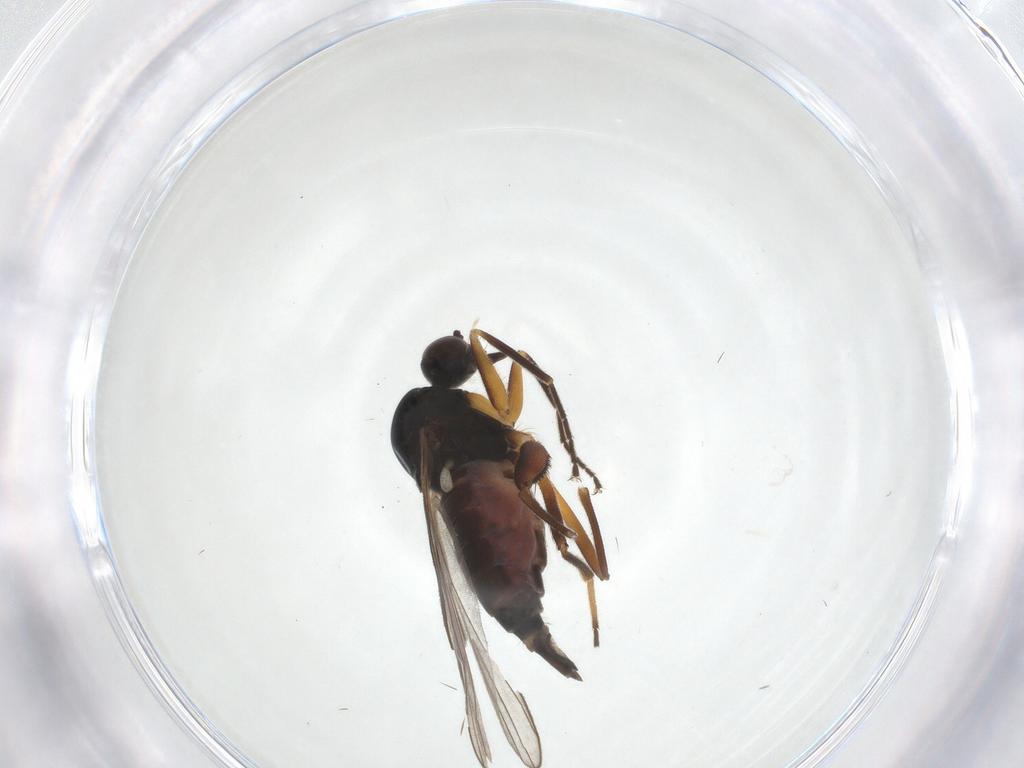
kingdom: Animalia
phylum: Arthropoda
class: Insecta
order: Diptera
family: Hybotidae
